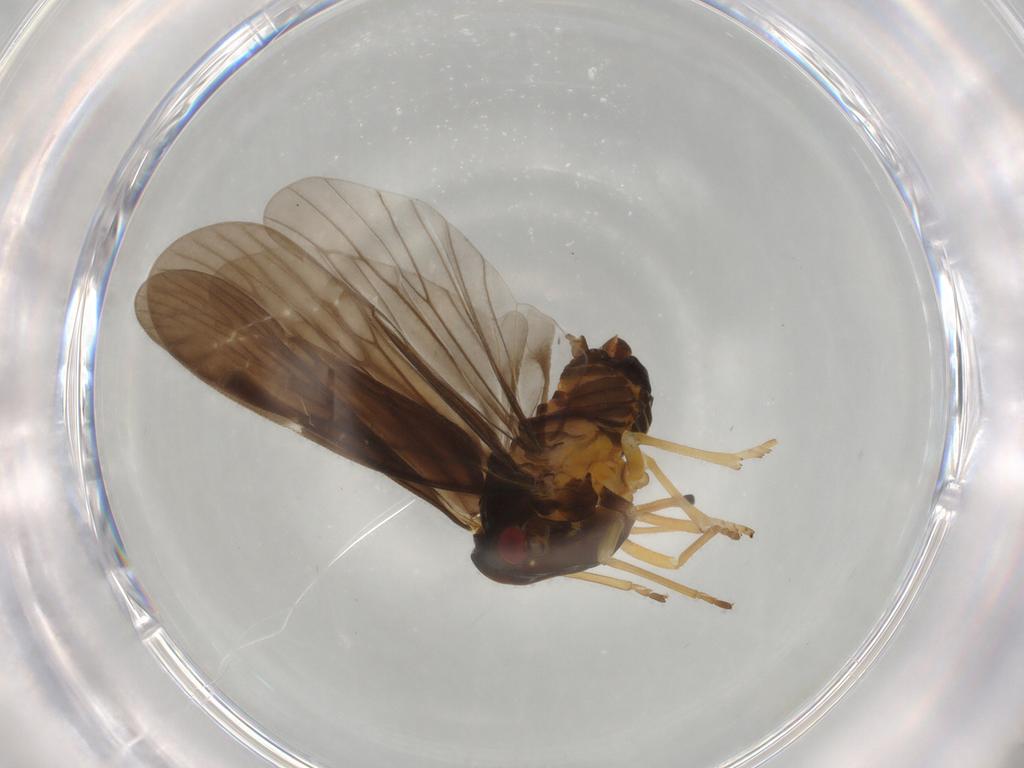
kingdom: Animalia
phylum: Arthropoda
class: Insecta
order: Hemiptera
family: Derbidae
